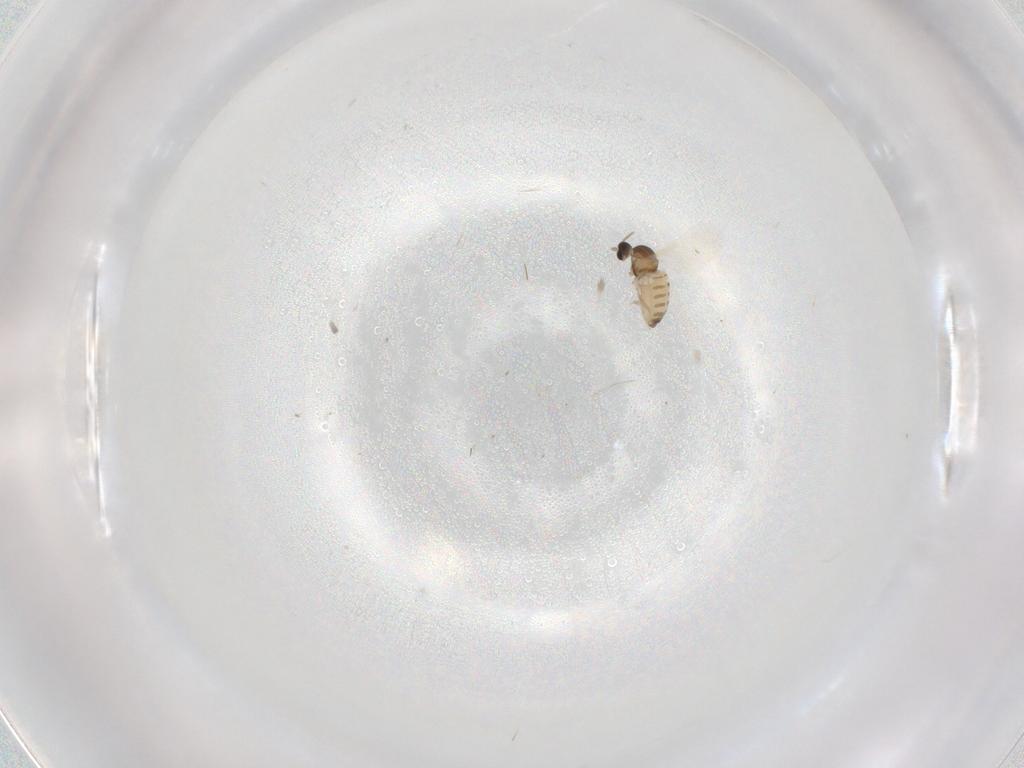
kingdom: Animalia
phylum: Arthropoda
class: Insecta
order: Diptera
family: Cecidomyiidae
